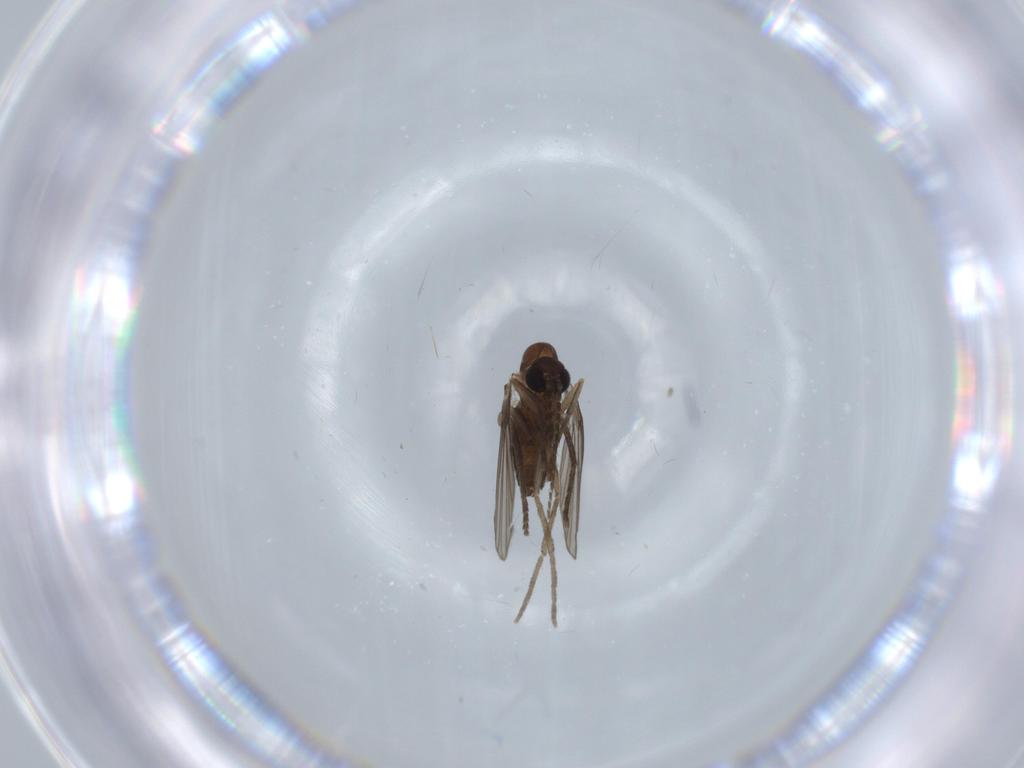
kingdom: Animalia
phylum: Arthropoda
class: Insecta
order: Diptera
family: Psychodidae
